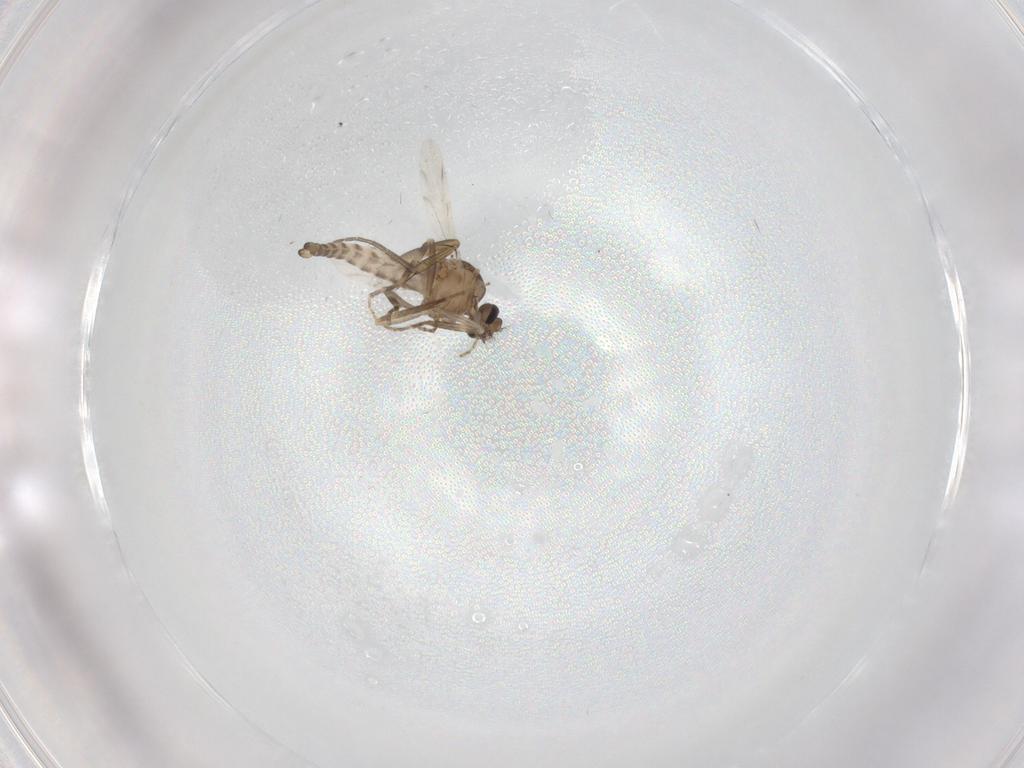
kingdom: Animalia
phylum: Arthropoda
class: Insecta
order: Diptera
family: Ceratopogonidae
